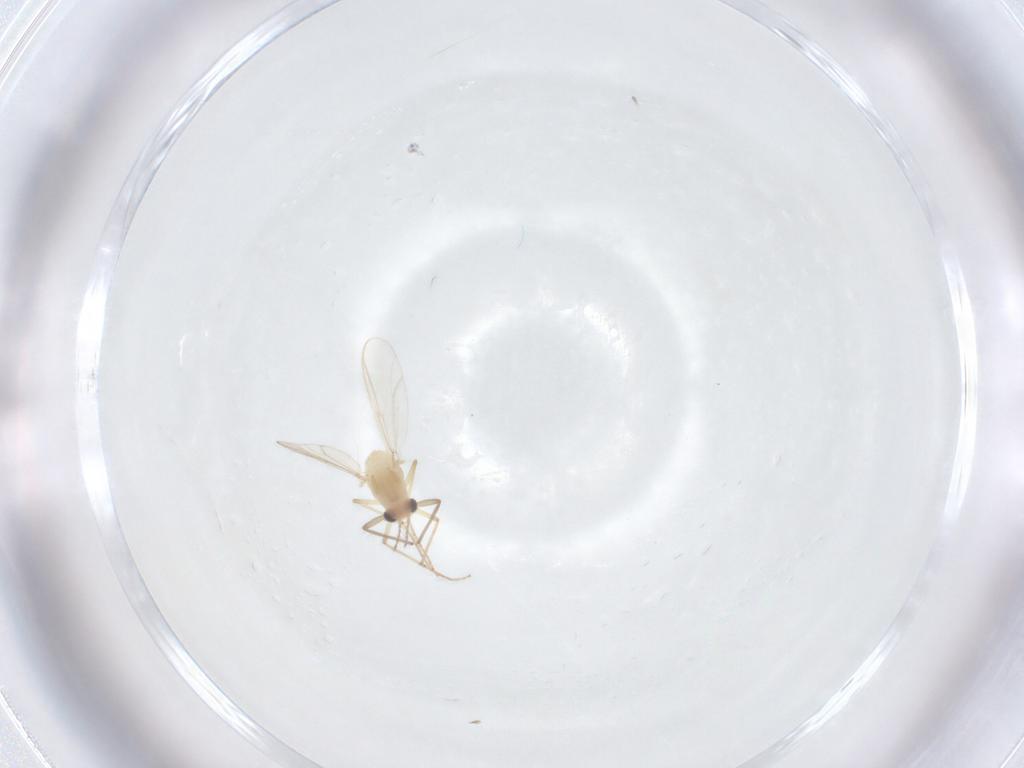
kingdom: Animalia
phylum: Arthropoda
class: Insecta
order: Diptera
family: Chironomidae
